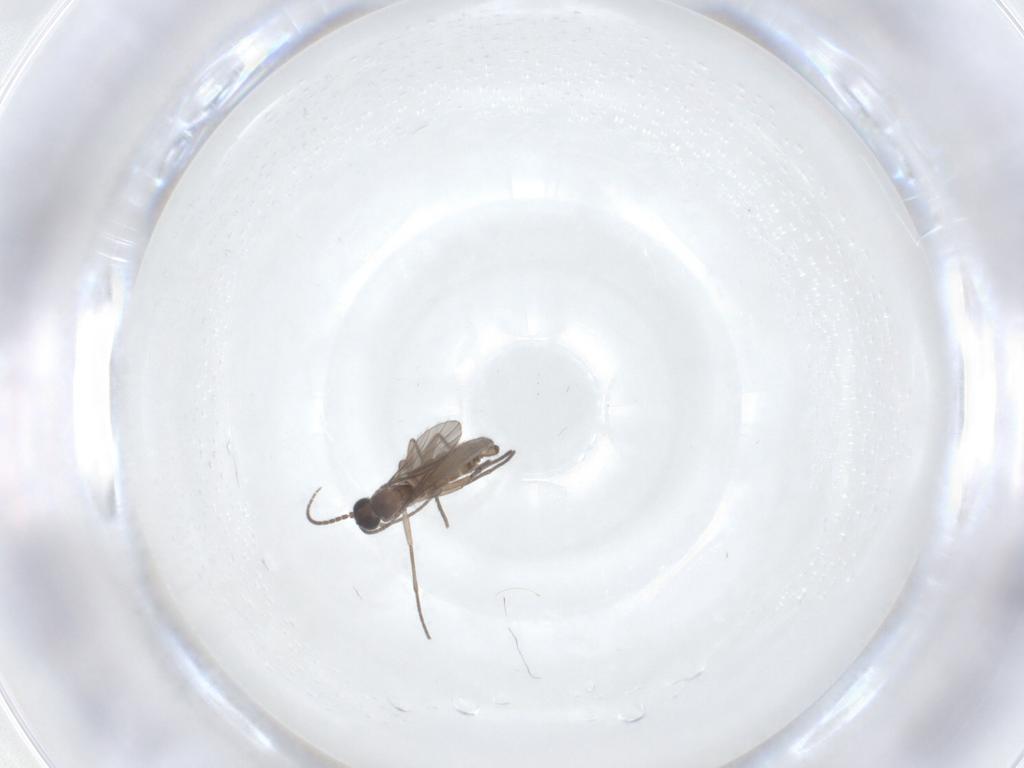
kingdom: Animalia
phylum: Arthropoda
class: Insecta
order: Diptera
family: Sciaridae
